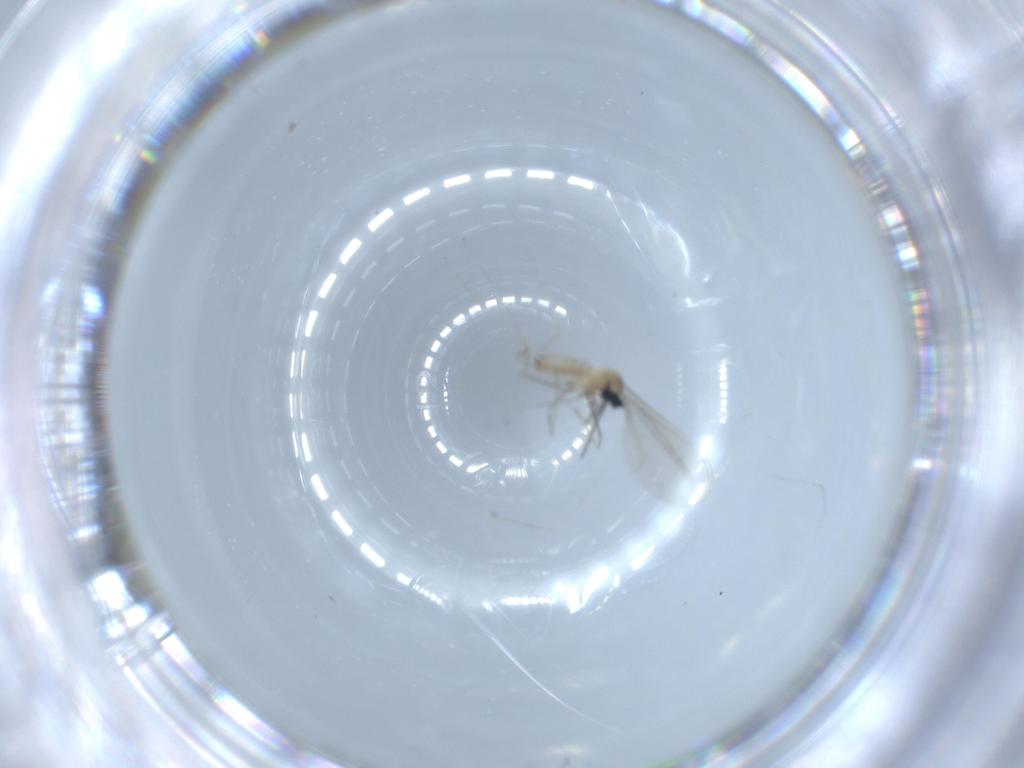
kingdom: Animalia
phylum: Arthropoda
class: Insecta
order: Diptera
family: Cecidomyiidae
